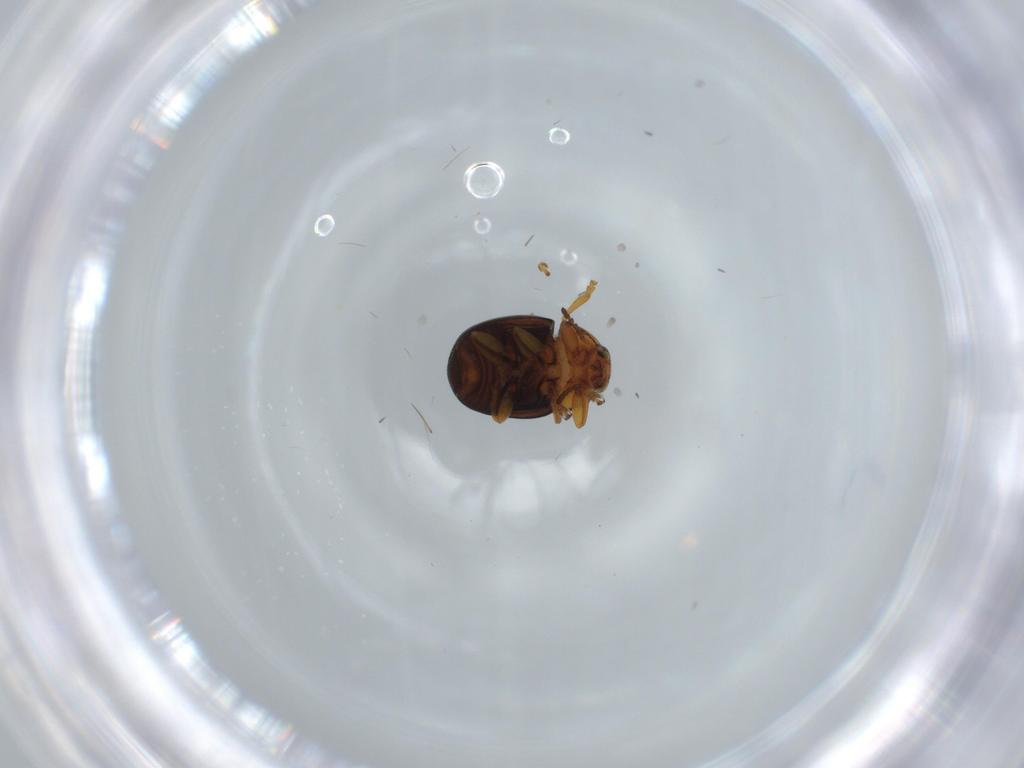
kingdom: Animalia
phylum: Arthropoda
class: Insecta
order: Coleoptera
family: Chrysomelidae
